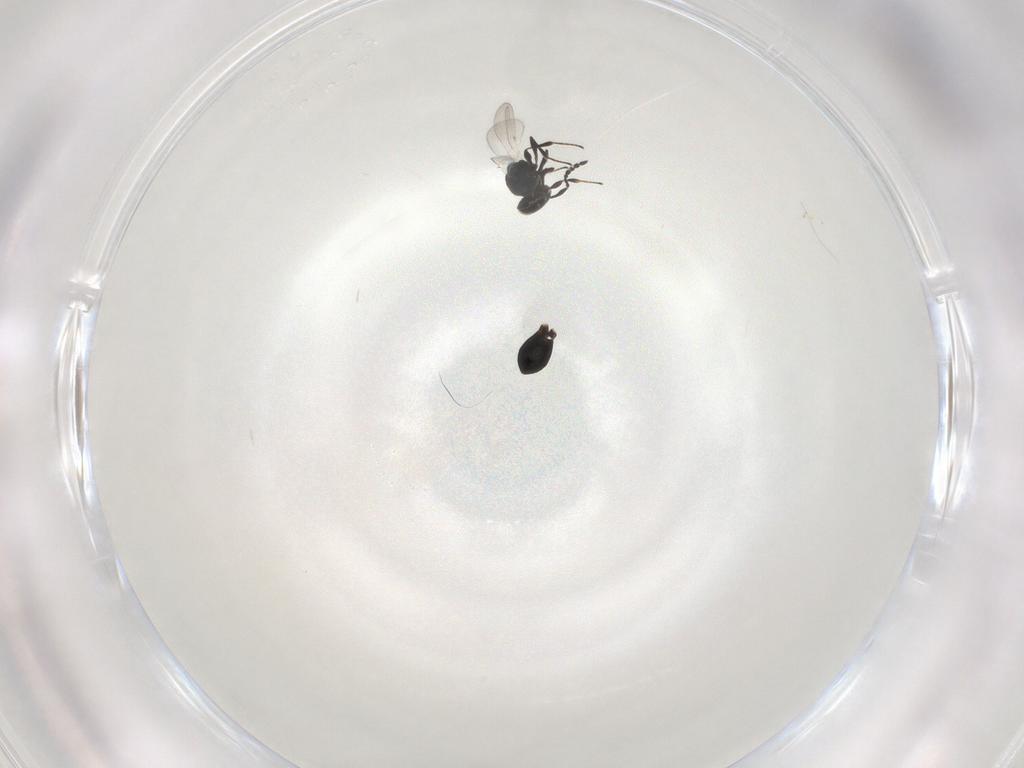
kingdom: Animalia
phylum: Arthropoda
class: Insecta
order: Hymenoptera
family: Platygastridae
